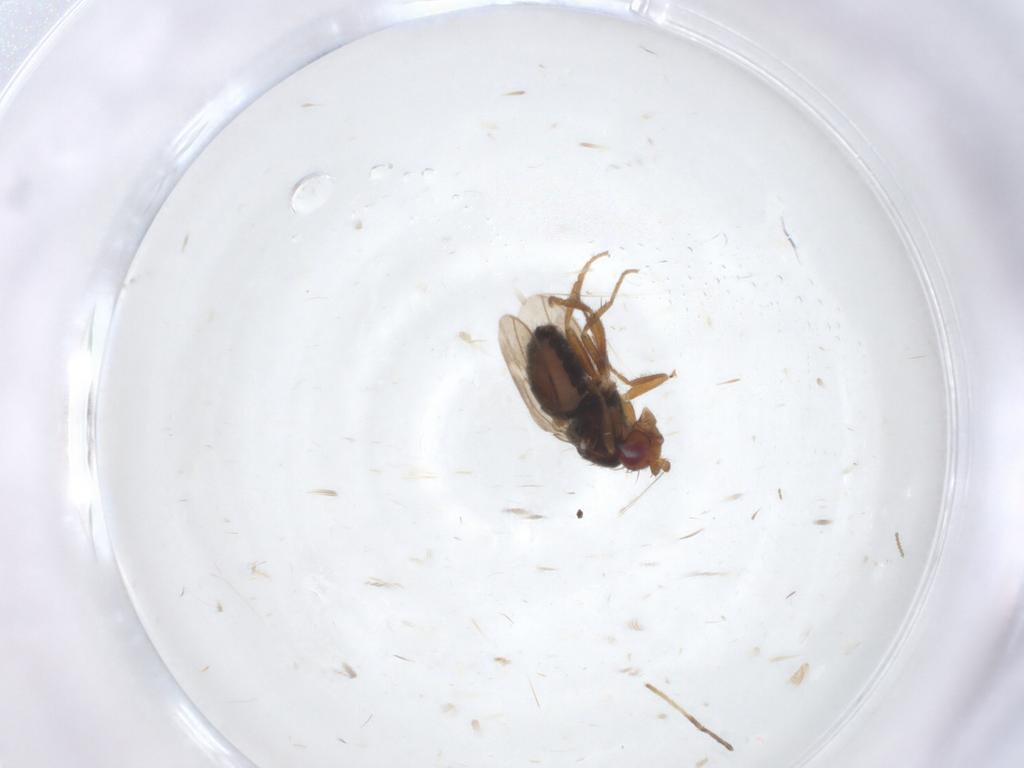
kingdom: Animalia
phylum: Arthropoda
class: Insecta
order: Diptera
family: Sphaeroceridae
